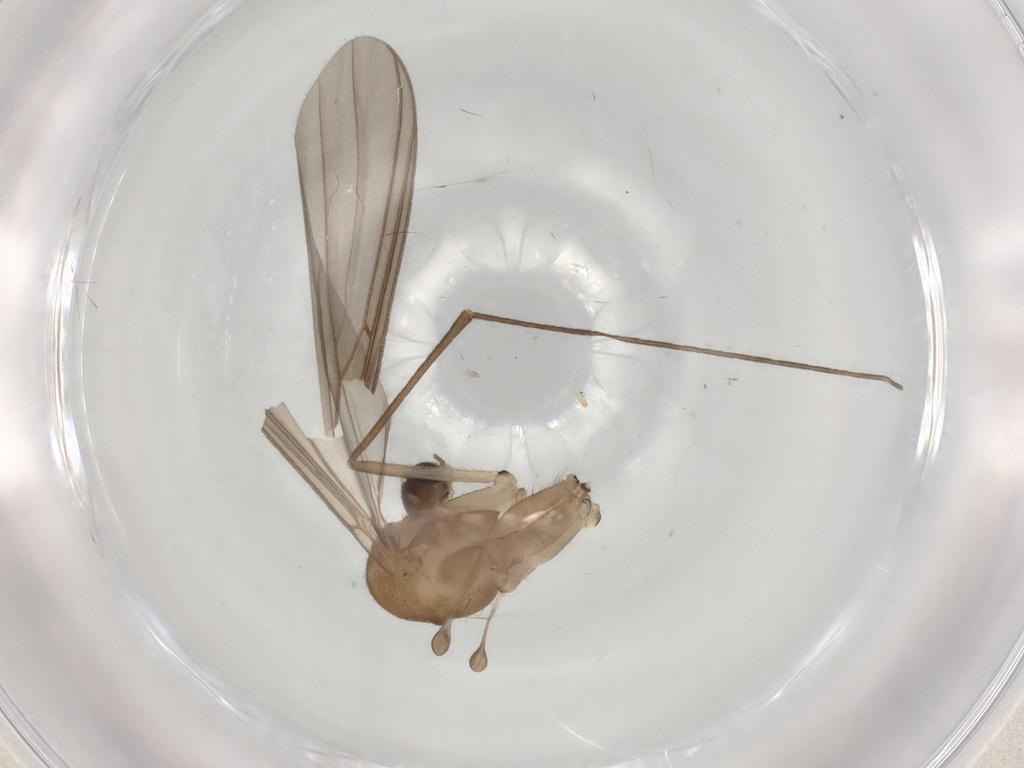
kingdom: Animalia
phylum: Arthropoda
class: Insecta
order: Diptera
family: Mycetophilidae
